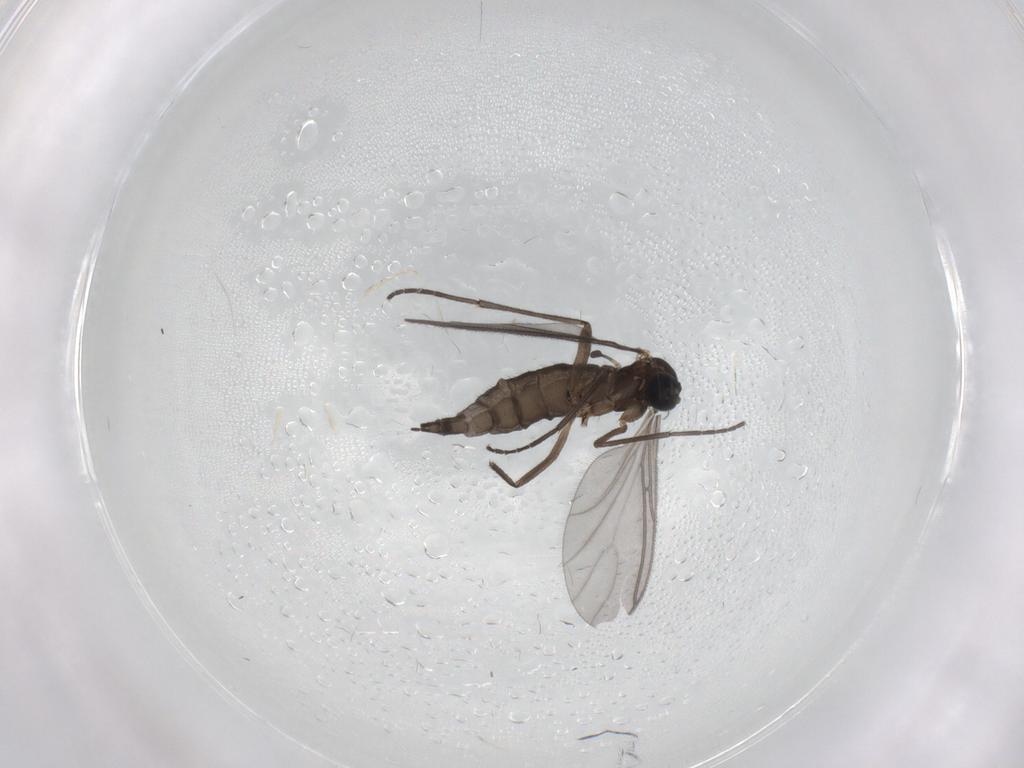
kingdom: Animalia
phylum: Arthropoda
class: Insecta
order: Diptera
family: Sciaridae
